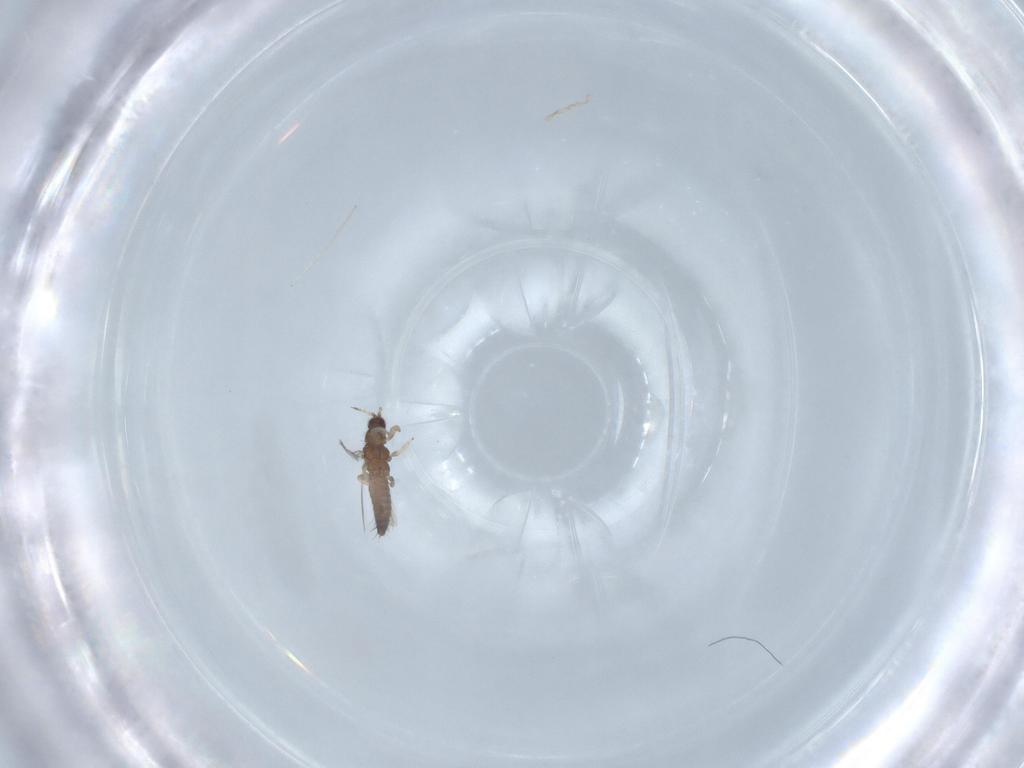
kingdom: Animalia
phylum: Arthropoda
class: Insecta
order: Thysanoptera
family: Thripidae
